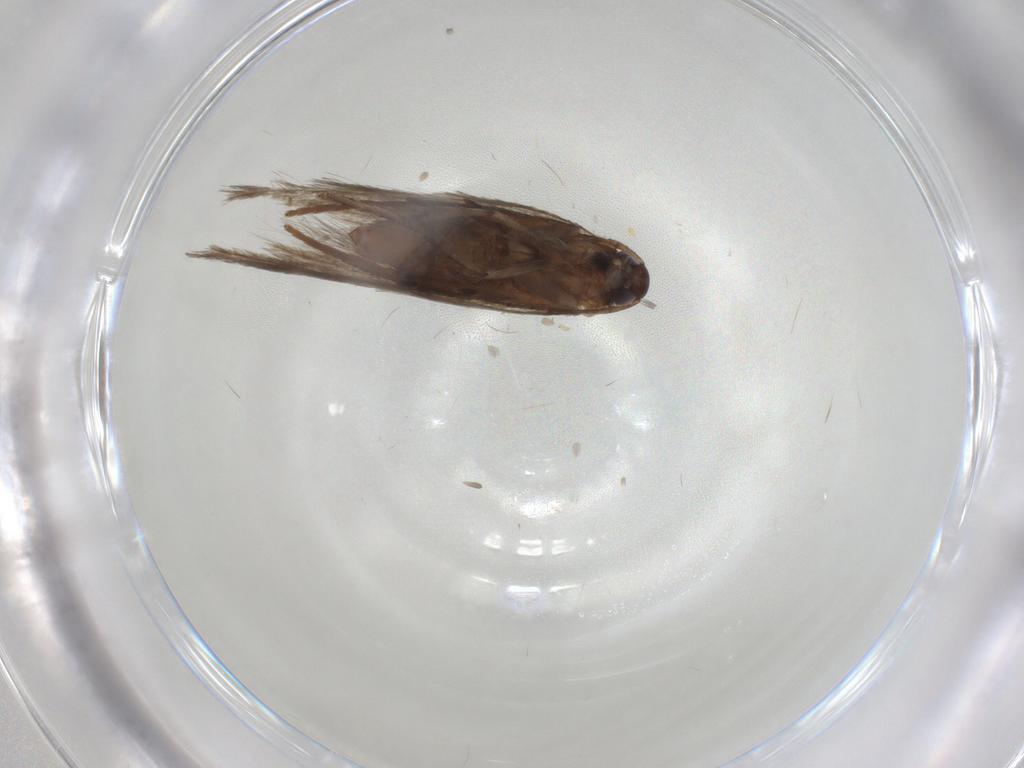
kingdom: Animalia
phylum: Arthropoda
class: Insecta
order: Lepidoptera
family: Cosmopterigidae
